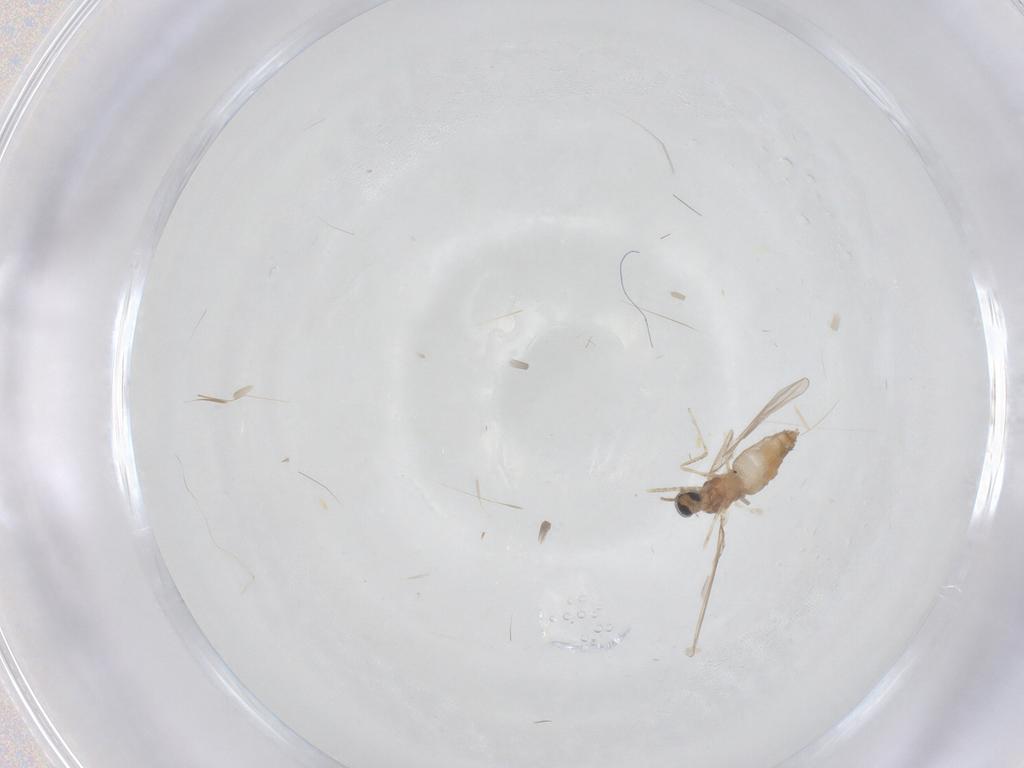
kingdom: Animalia
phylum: Arthropoda
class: Insecta
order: Diptera
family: Cecidomyiidae
